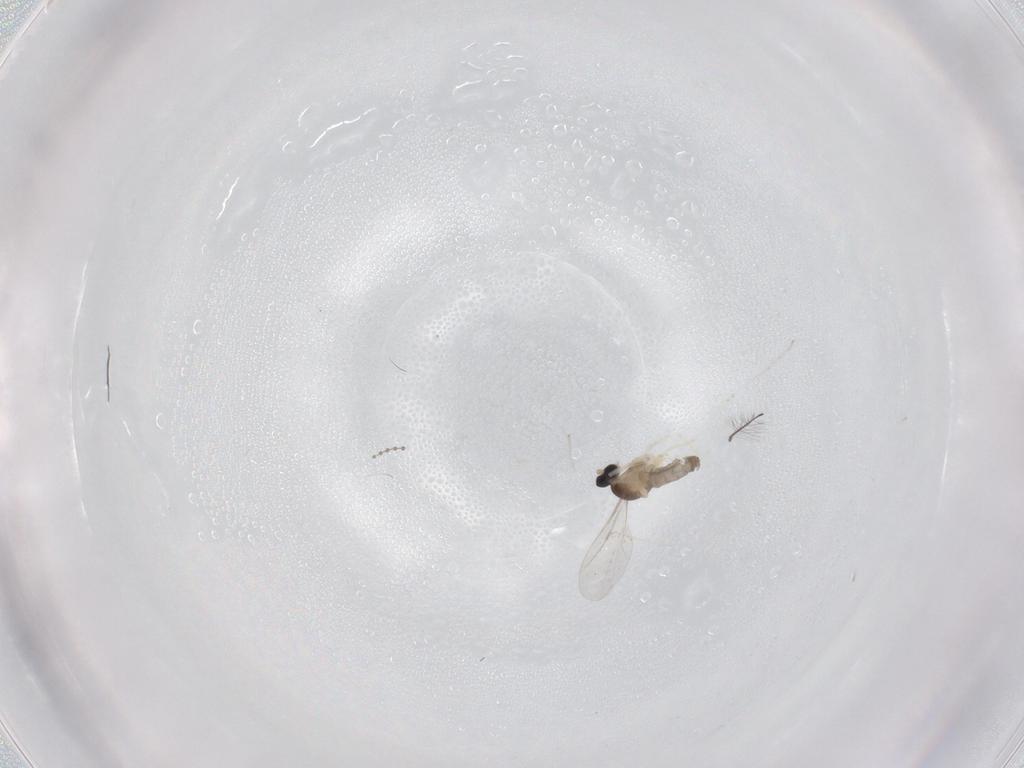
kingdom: Animalia
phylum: Arthropoda
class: Insecta
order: Diptera
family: Cecidomyiidae
